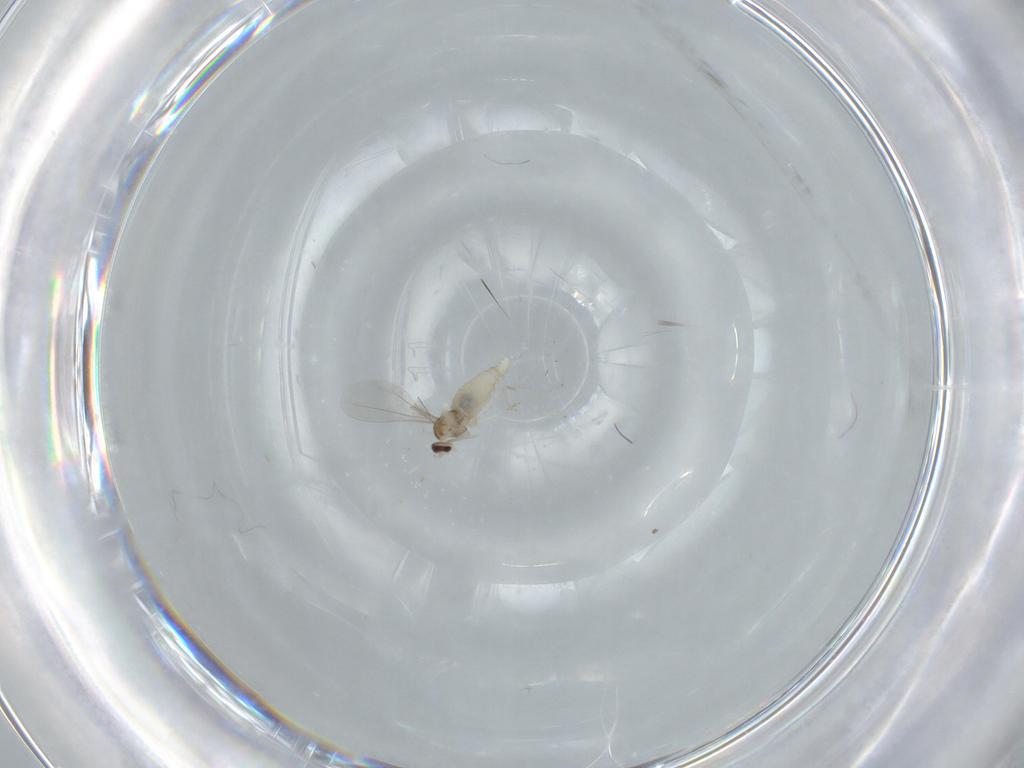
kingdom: Animalia
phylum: Arthropoda
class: Insecta
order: Diptera
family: Cecidomyiidae
